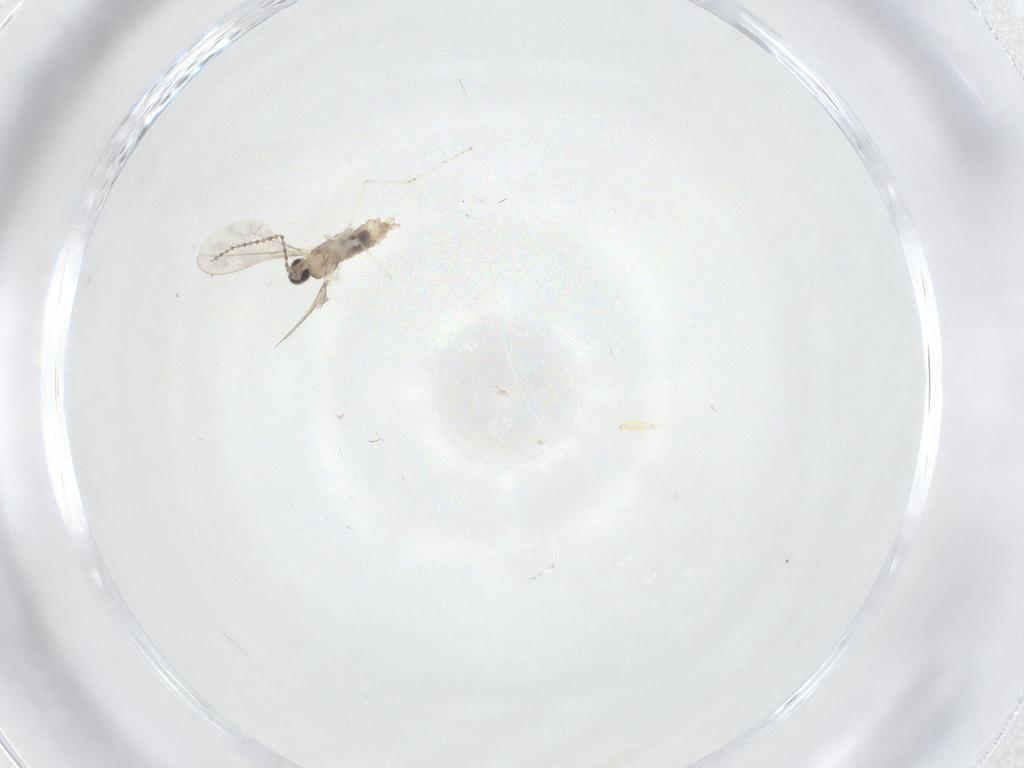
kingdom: Animalia
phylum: Arthropoda
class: Insecta
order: Diptera
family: Cecidomyiidae
